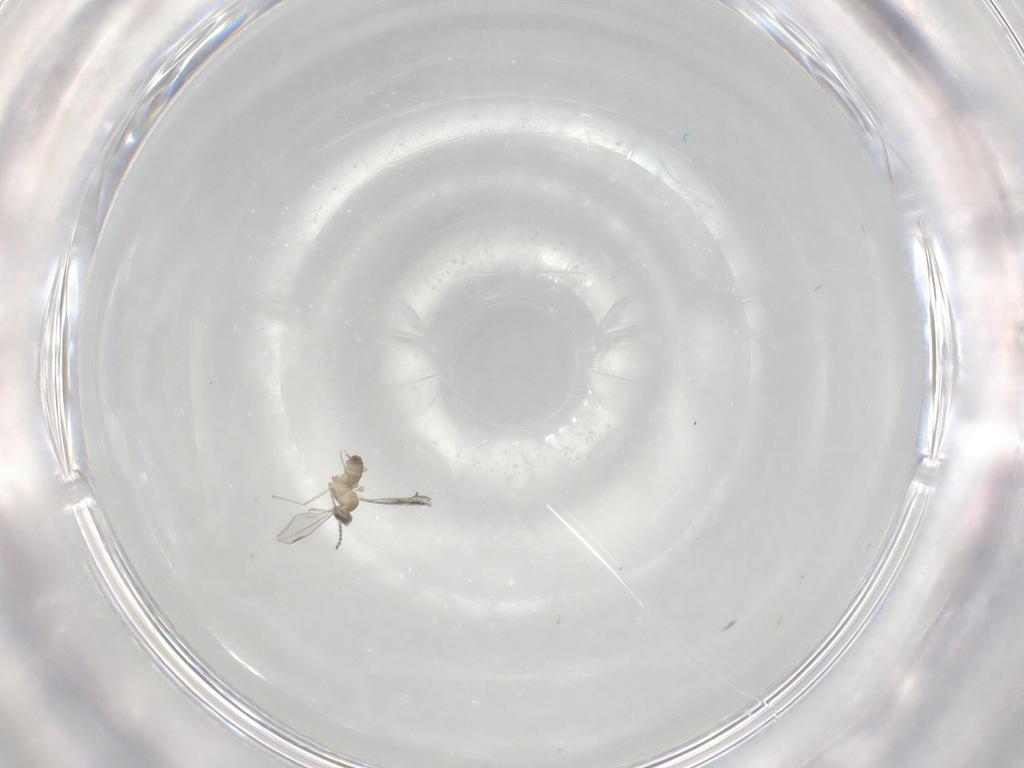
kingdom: Animalia
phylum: Arthropoda
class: Insecta
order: Diptera
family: Cecidomyiidae
